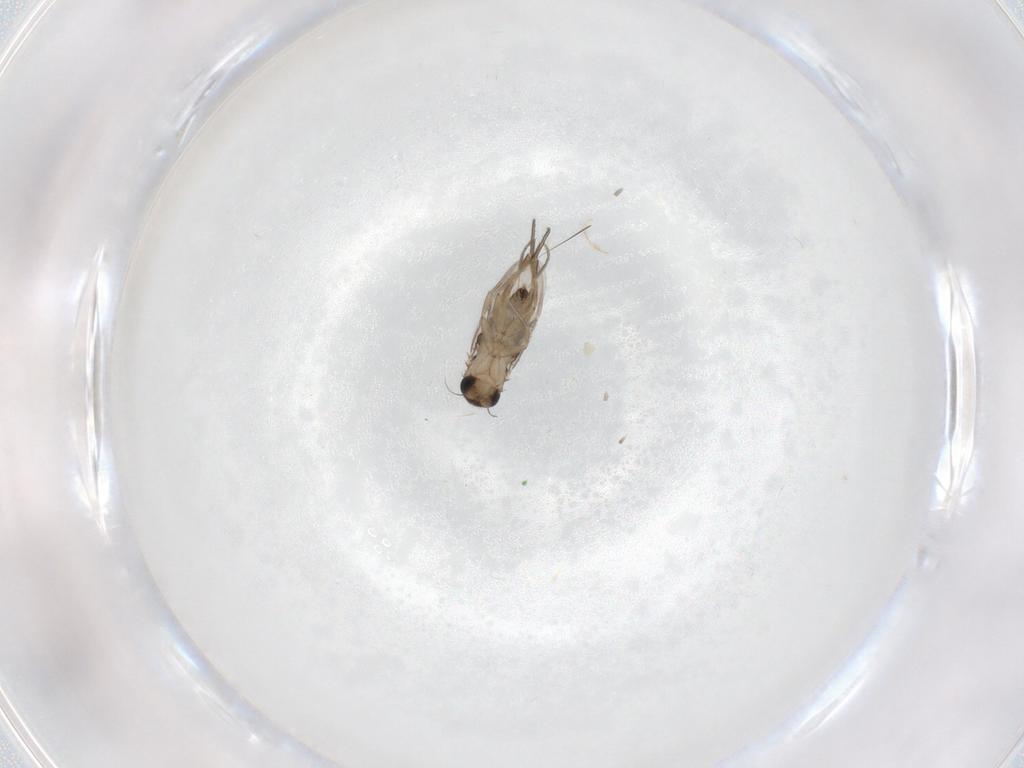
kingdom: Animalia
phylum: Arthropoda
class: Insecta
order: Diptera
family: Phoridae
